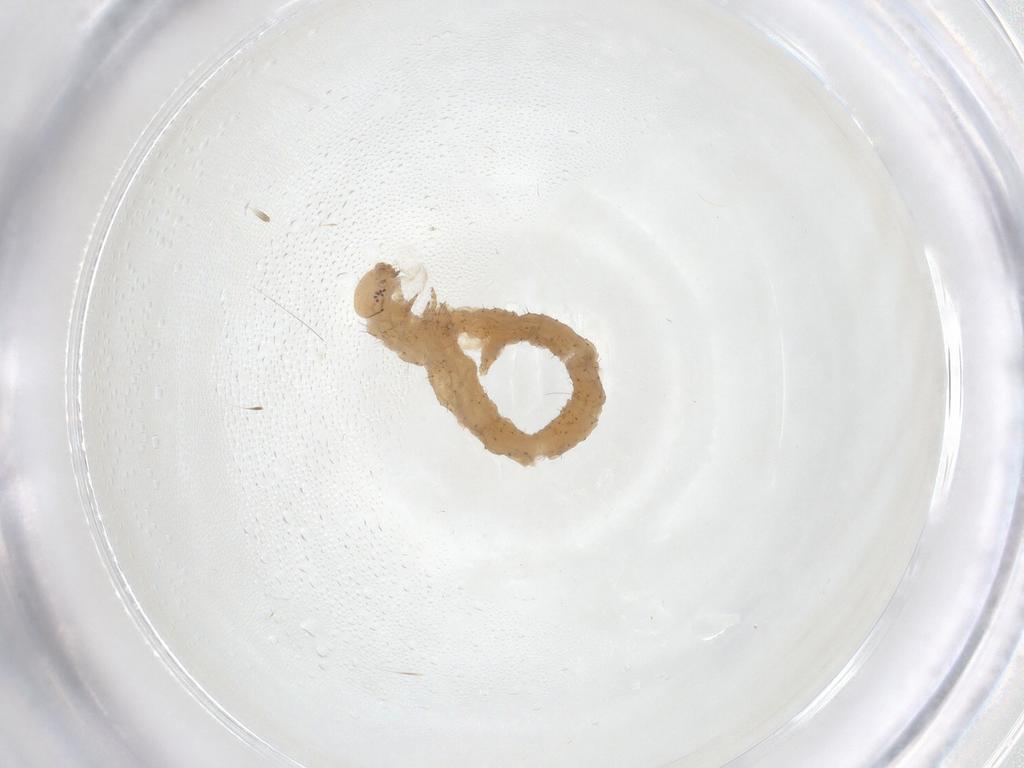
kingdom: Animalia
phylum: Arthropoda
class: Insecta
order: Lepidoptera
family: Geometridae
